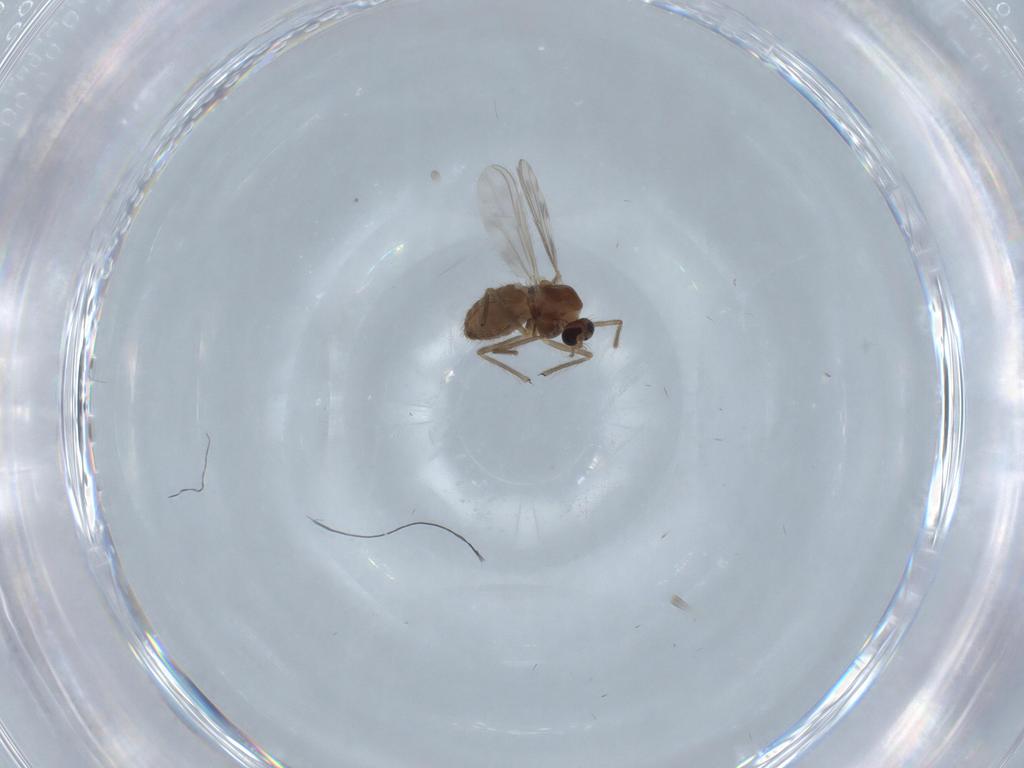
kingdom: Animalia
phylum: Arthropoda
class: Insecta
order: Diptera
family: Chironomidae
